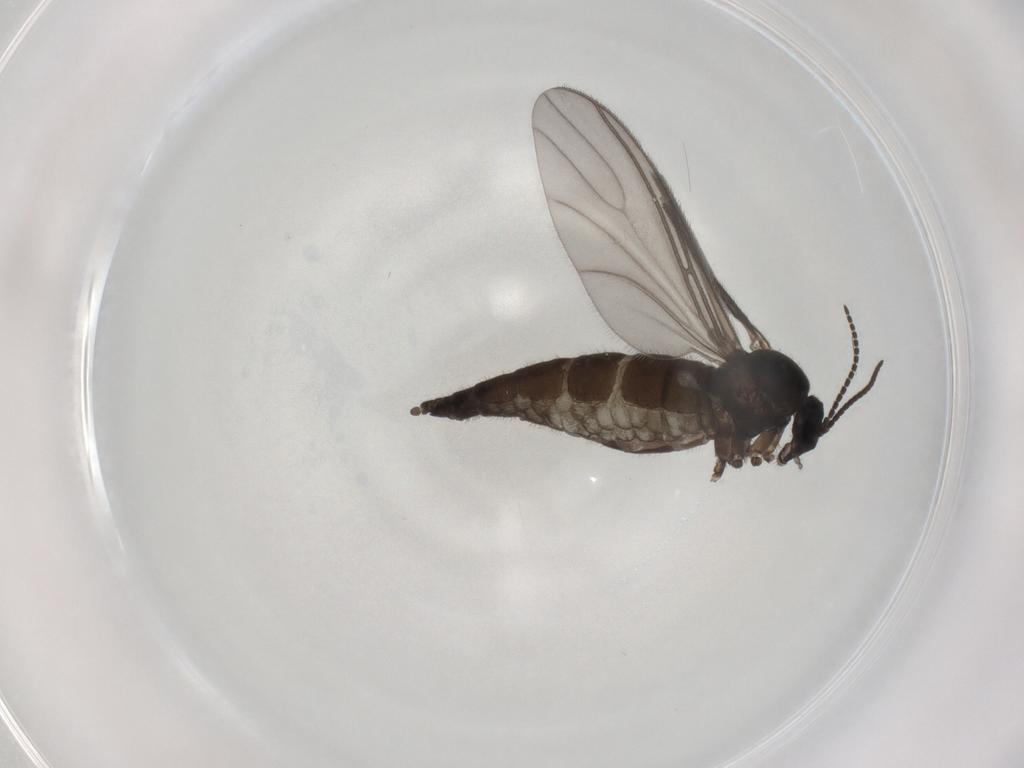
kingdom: Animalia
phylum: Arthropoda
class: Insecta
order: Diptera
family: Sciaridae
